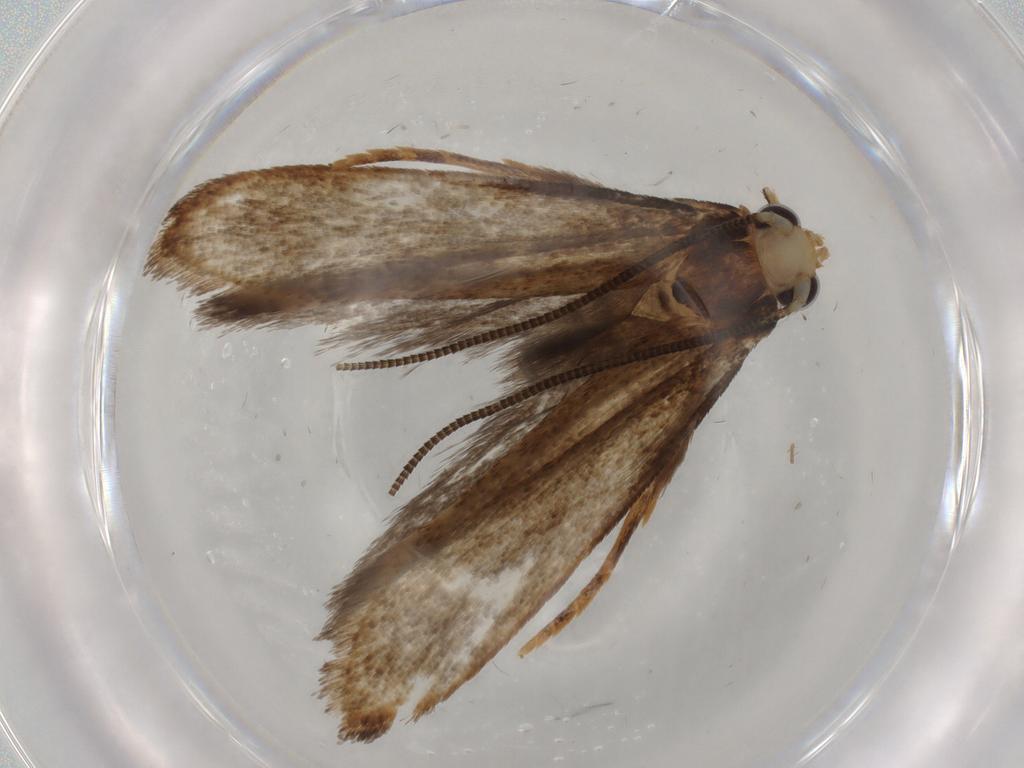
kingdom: Animalia
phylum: Arthropoda
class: Insecta
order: Lepidoptera
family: Tineidae
